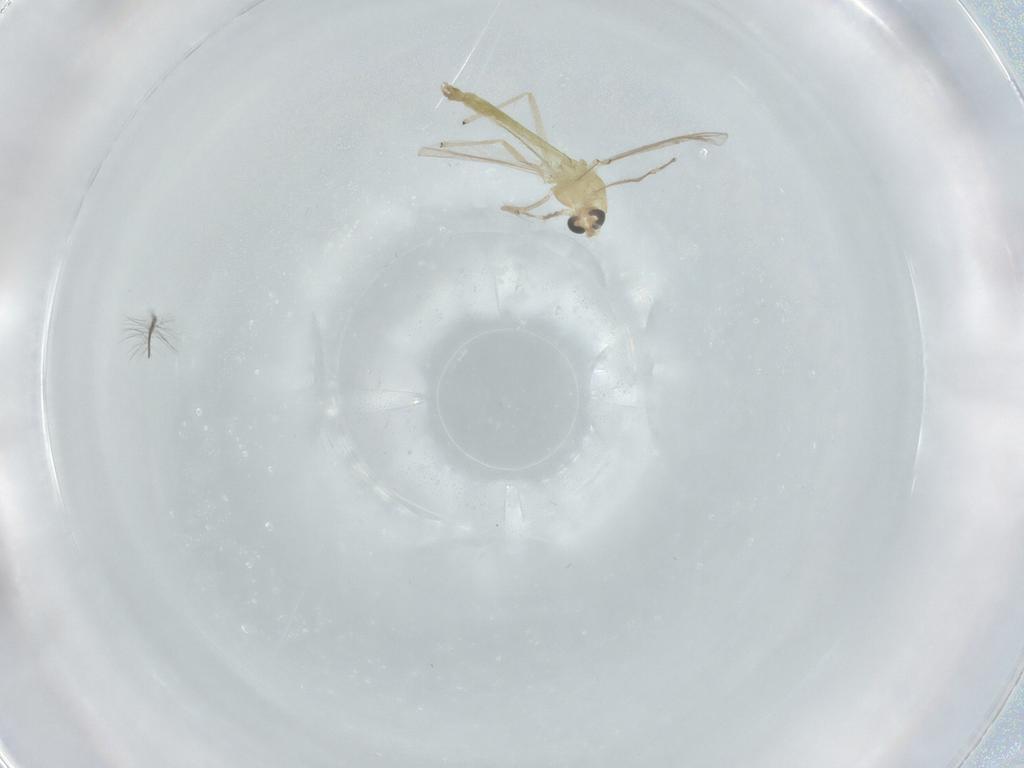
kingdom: Animalia
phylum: Arthropoda
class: Insecta
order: Diptera
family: Chironomidae
